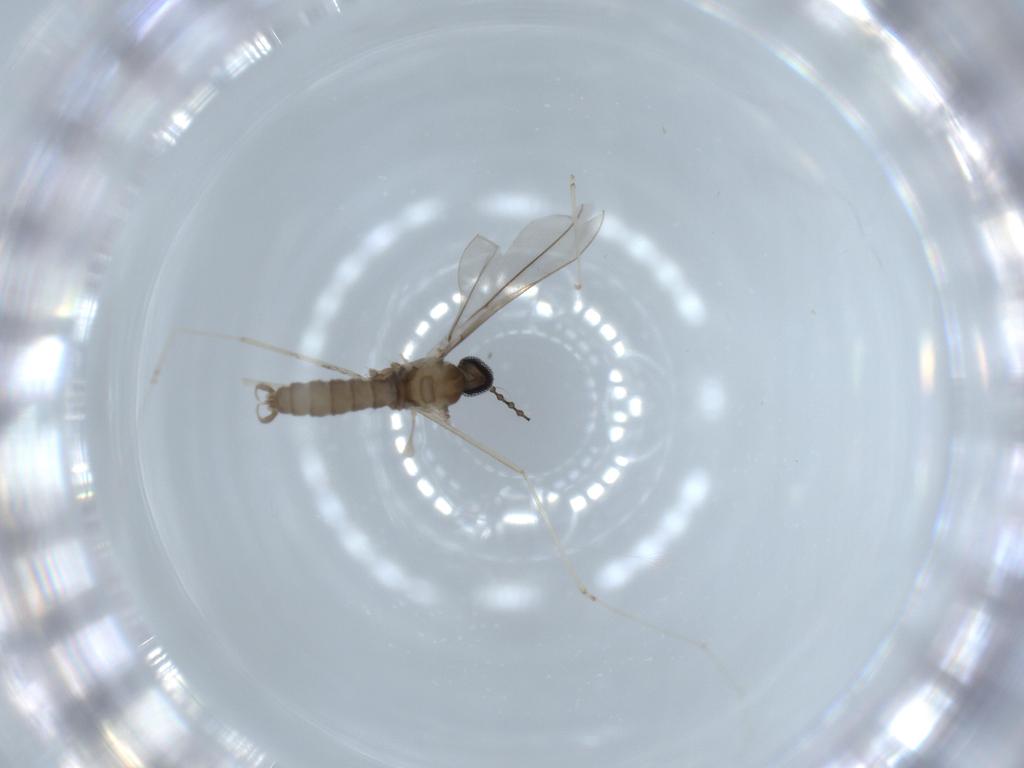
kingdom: Animalia
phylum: Arthropoda
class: Insecta
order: Diptera
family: Cecidomyiidae
